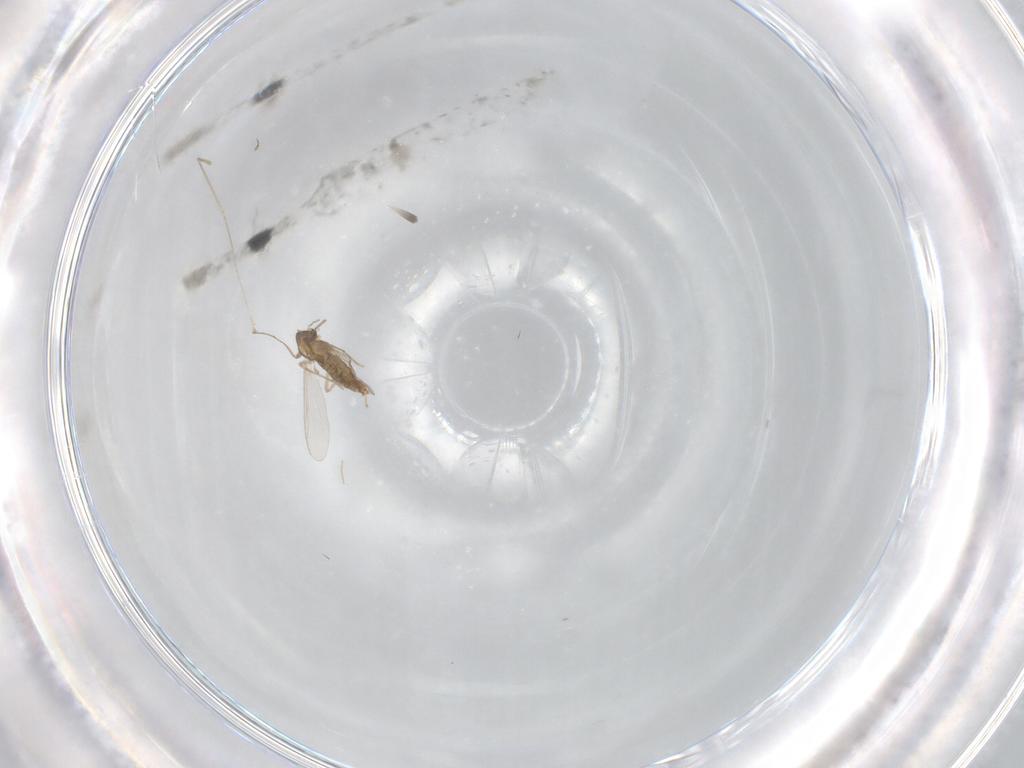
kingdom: Animalia
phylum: Arthropoda
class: Insecta
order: Diptera
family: Chironomidae
